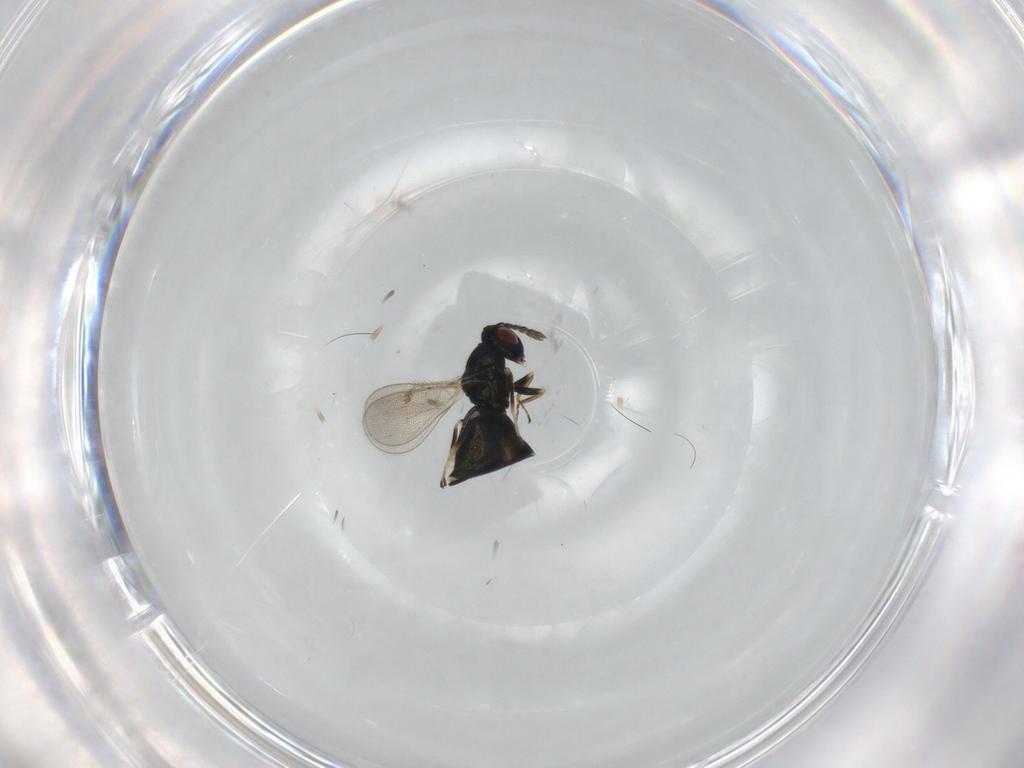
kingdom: Animalia
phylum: Arthropoda
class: Insecta
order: Hymenoptera
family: Eulophidae
